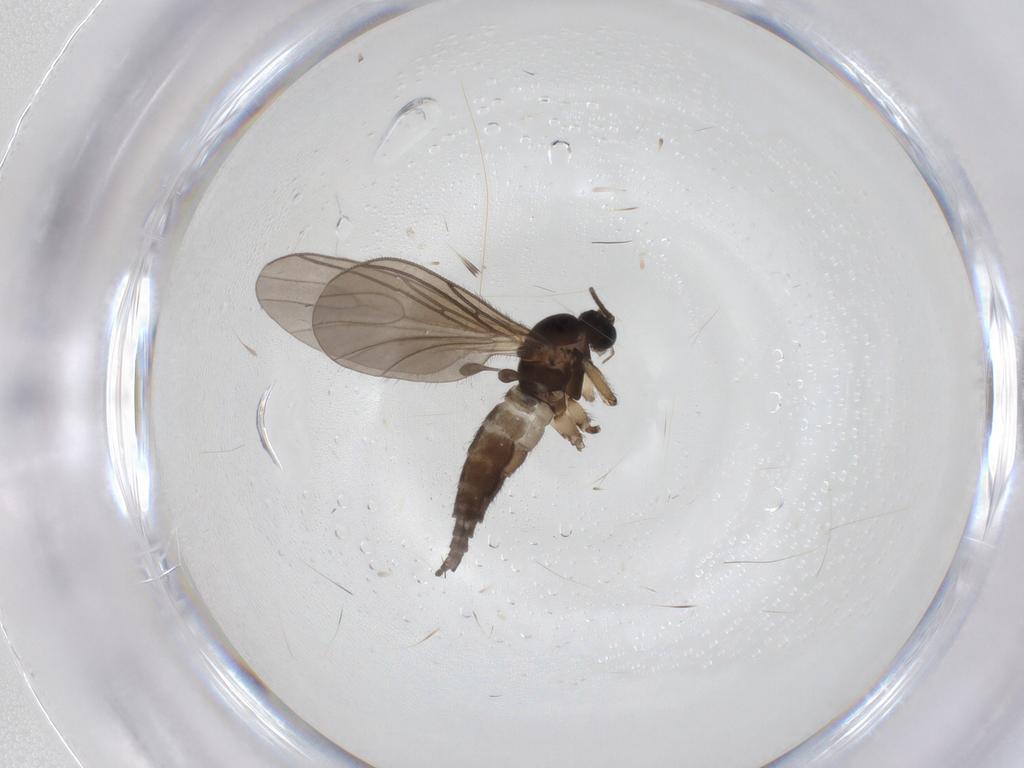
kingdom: Animalia
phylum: Arthropoda
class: Insecta
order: Diptera
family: Sciaridae
